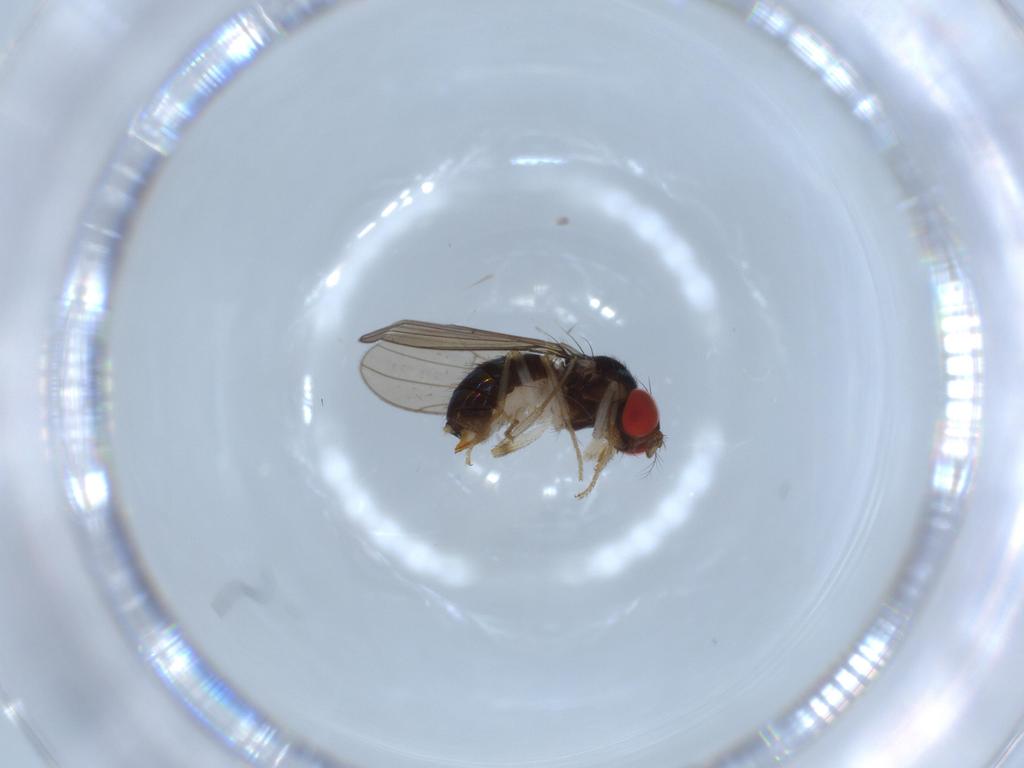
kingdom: Animalia
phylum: Arthropoda
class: Insecta
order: Diptera
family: Drosophilidae
